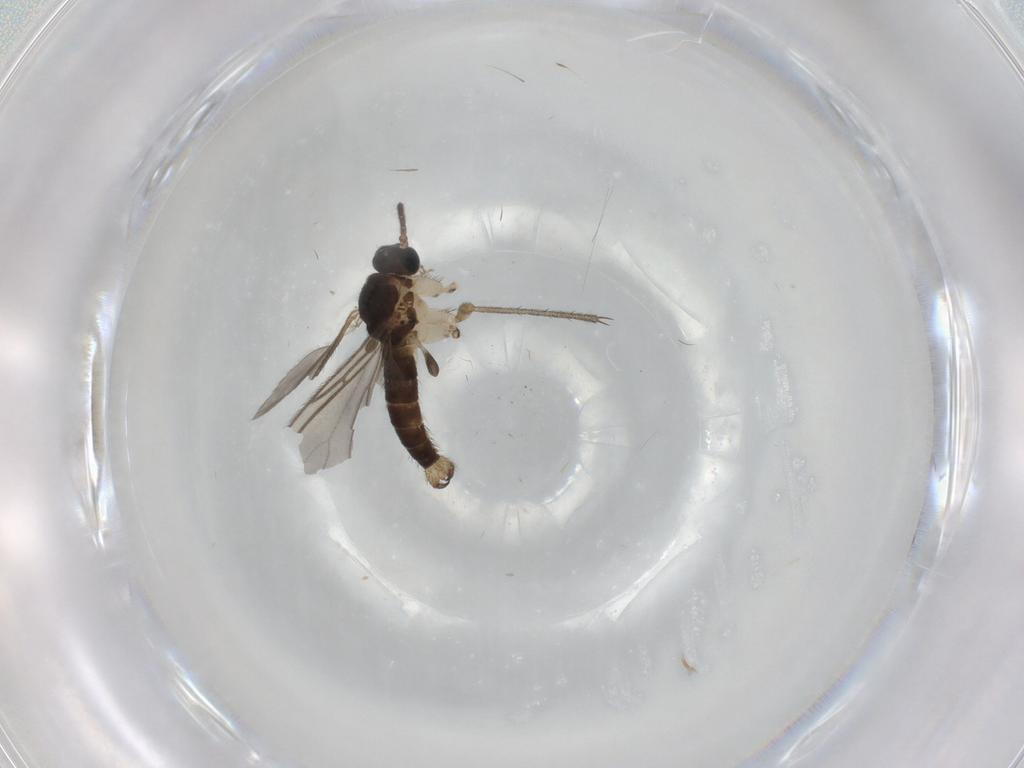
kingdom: Animalia
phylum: Arthropoda
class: Insecta
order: Diptera
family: Tabanidae
